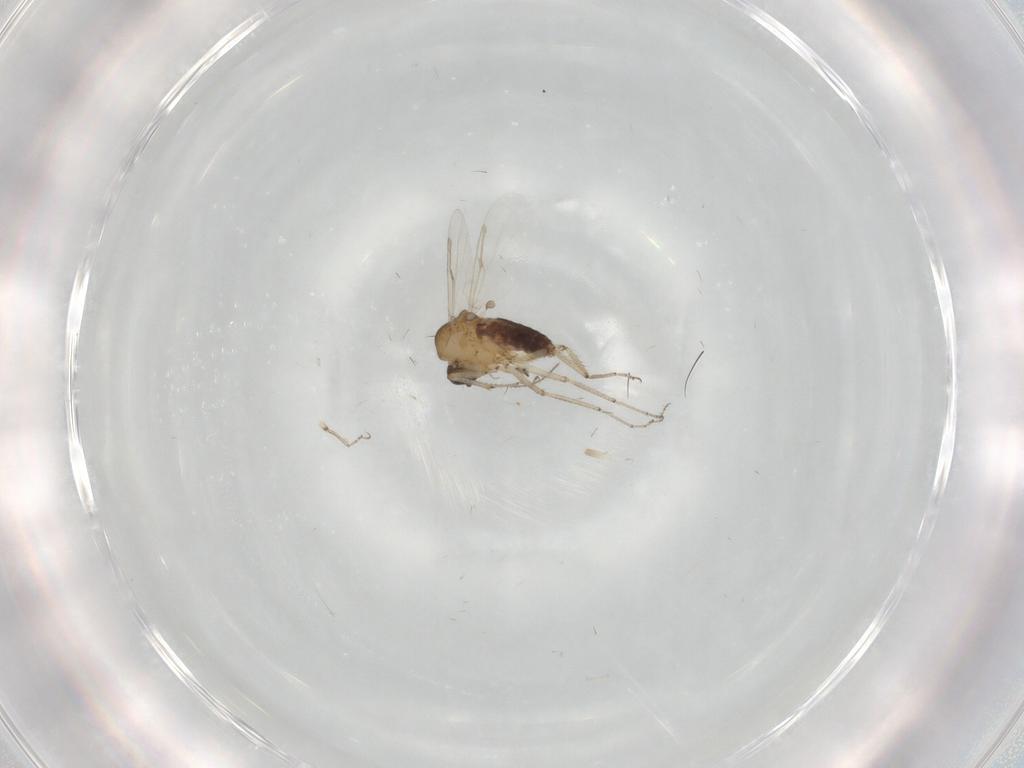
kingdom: Animalia
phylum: Arthropoda
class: Insecta
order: Diptera
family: Ceratopogonidae
